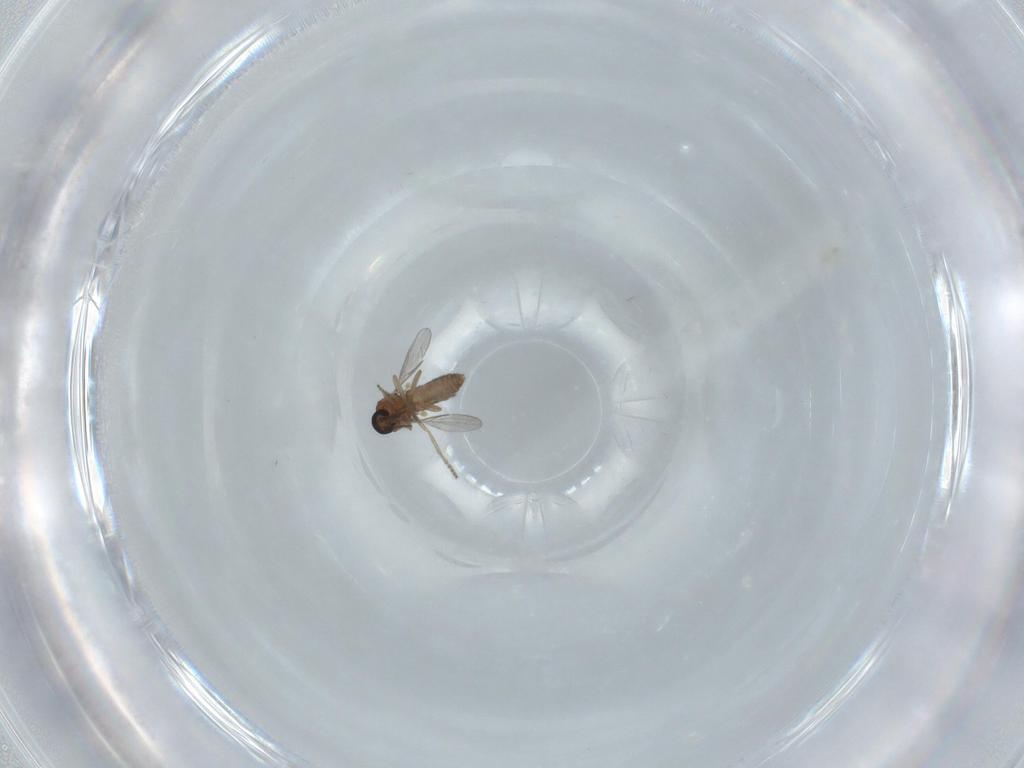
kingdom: Animalia
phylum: Arthropoda
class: Insecta
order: Diptera
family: Ceratopogonidae
